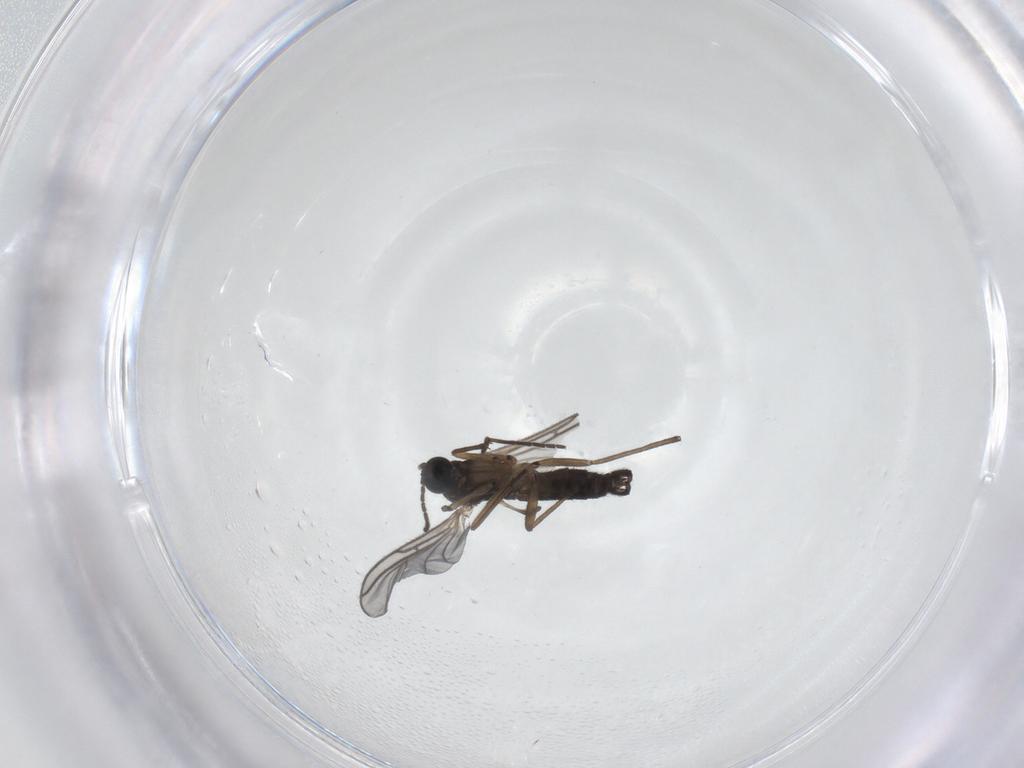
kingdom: Animalia
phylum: Arthropoda
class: Insecta
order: Diptera
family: Sciaridae
